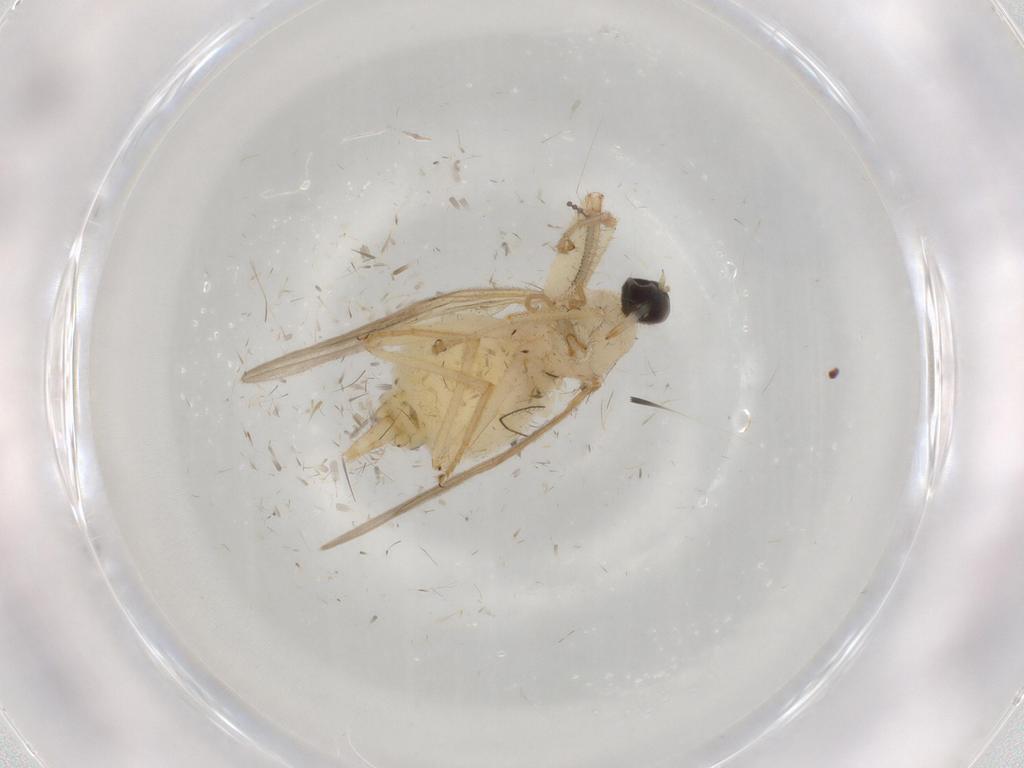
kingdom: Animalia
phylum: Arthropoda
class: Insecta
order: Diptera
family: Hybotidae
